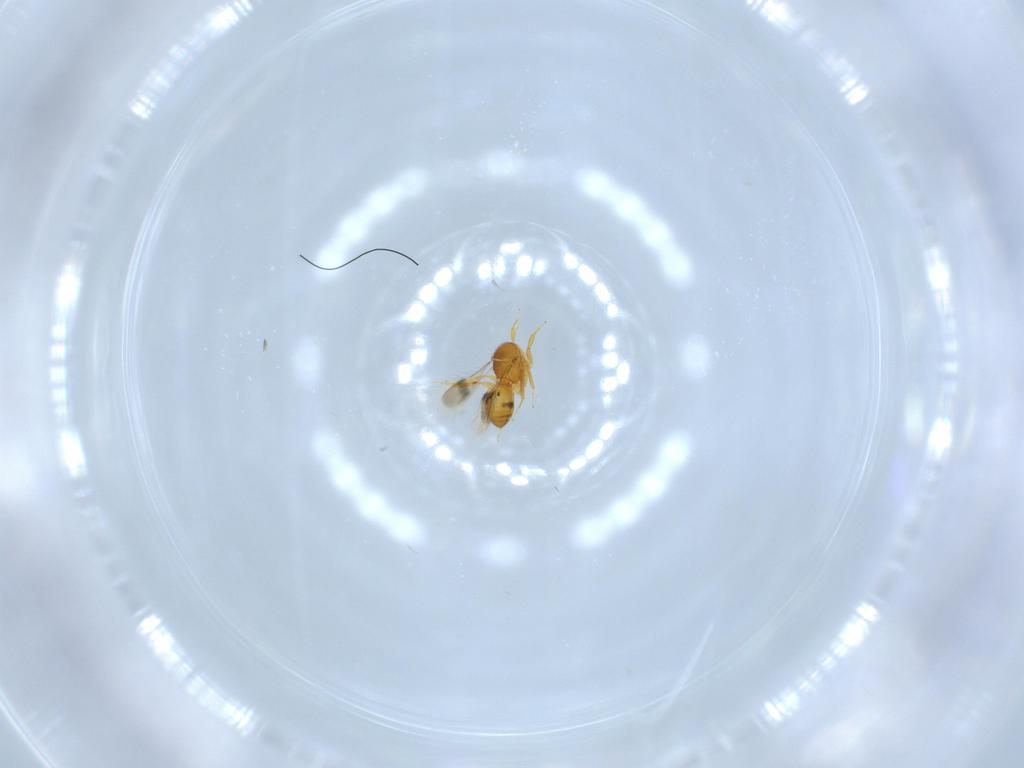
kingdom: Animalia
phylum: Arthropoda
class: Insecta
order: Hymenoptera
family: Scelionidae
